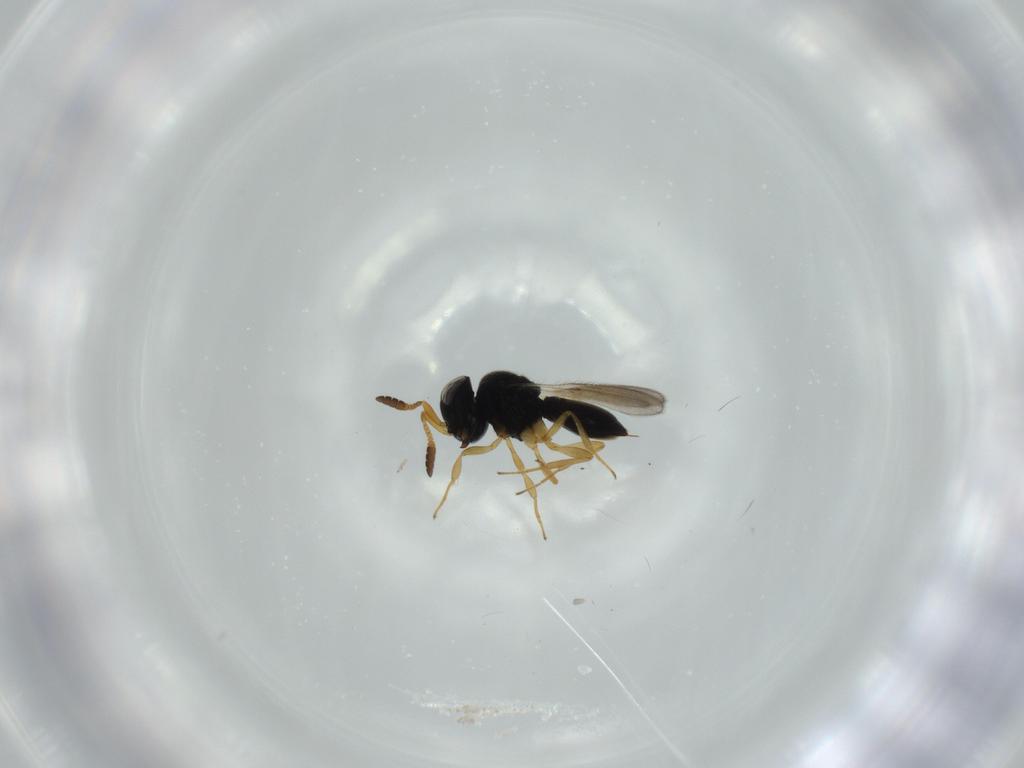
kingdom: Animalia
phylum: Arthropoda
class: Insecta
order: Hymenoptera
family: Scelionidae
